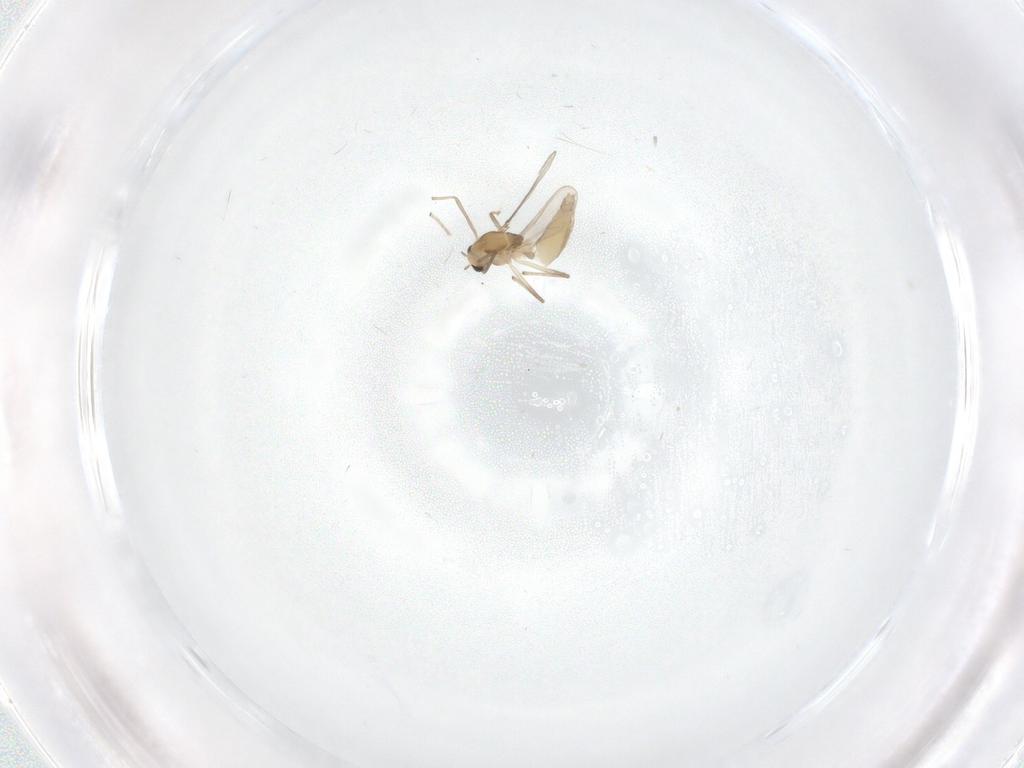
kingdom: Animalia
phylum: Arthropoda
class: Insecta
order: Diptera
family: Chironomidae
